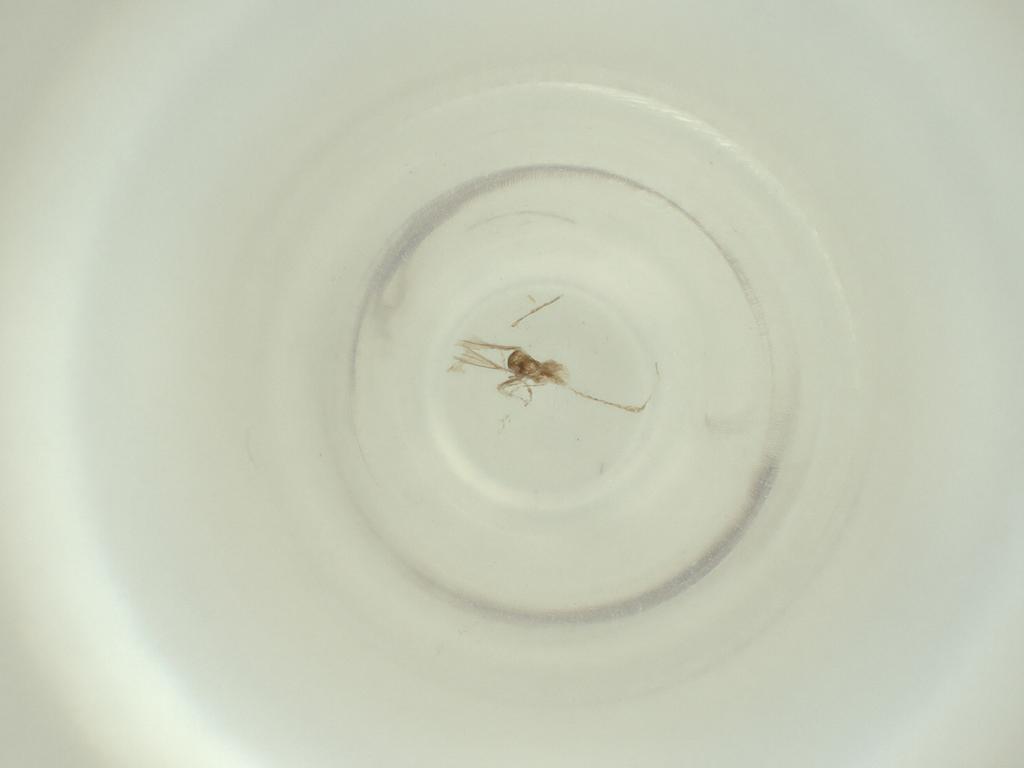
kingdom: Animalia
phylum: Arthropoda
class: Insecta
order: Diptera
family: Cecidomyiidae
